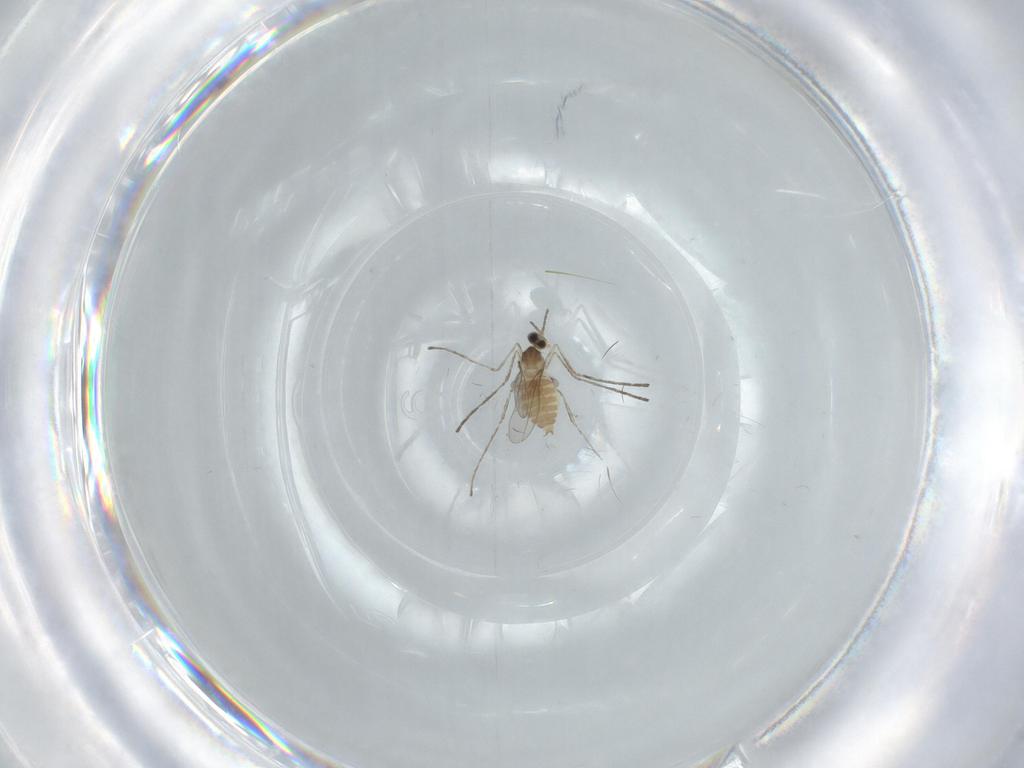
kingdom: Animalia
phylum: Arthropoda
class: Insecta
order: Diptera
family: Cecidomyiidae
